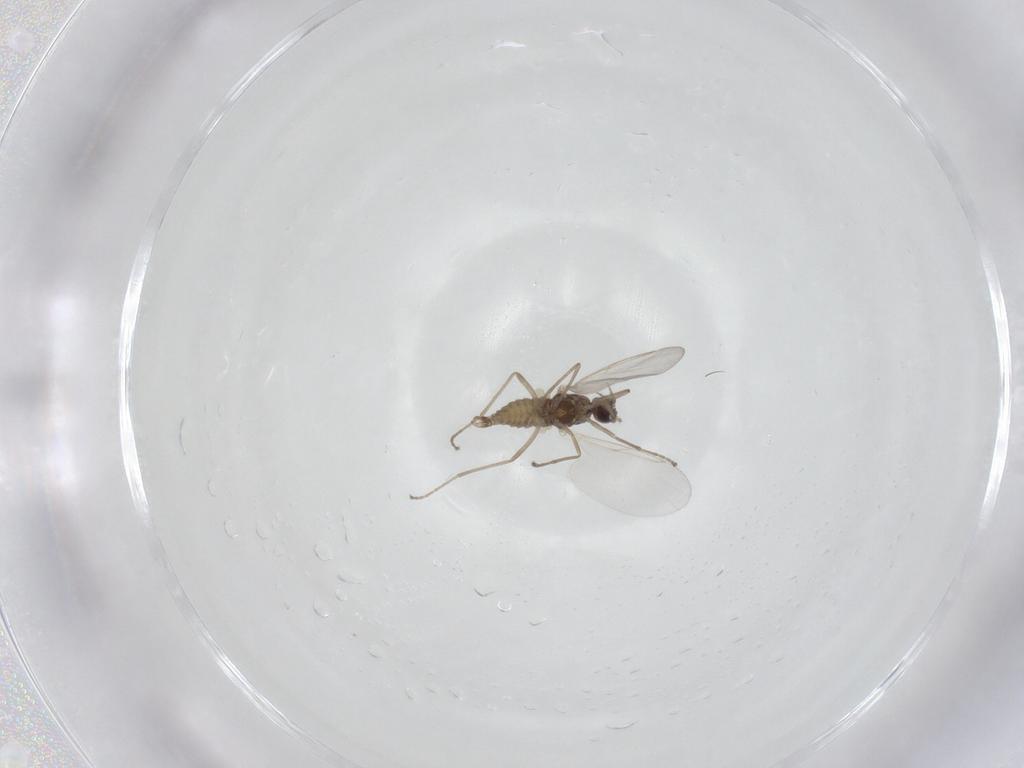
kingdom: Animalia
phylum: Arthropoda
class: Insecta
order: Diptera
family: Cecidomyiidae
